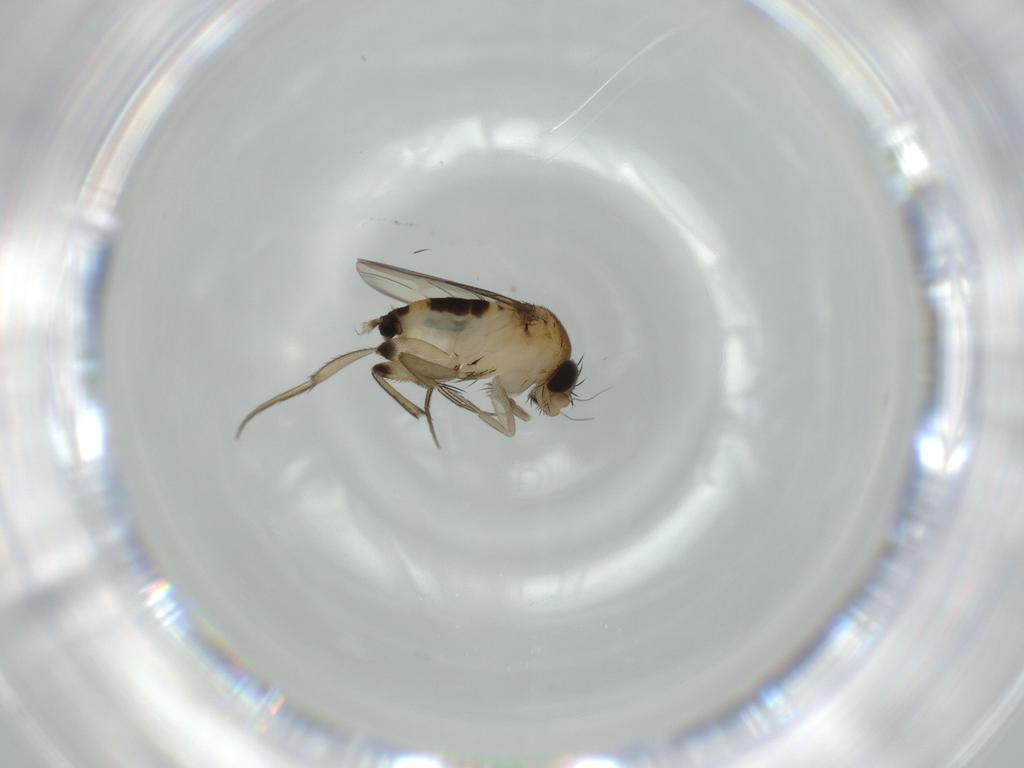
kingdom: Animalia
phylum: Arthropoda
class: Insecta
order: Diptera
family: Phoridae
